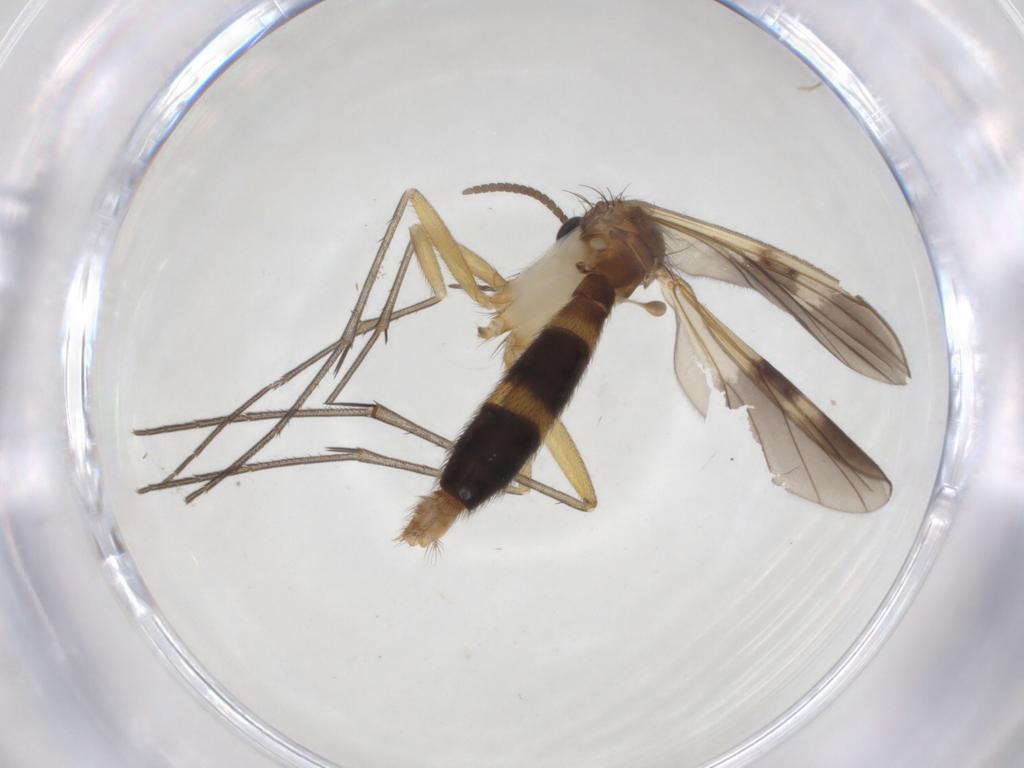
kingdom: Animalia
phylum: Arthropoda
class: Insecta
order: Diptera
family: Mycetophilidae
